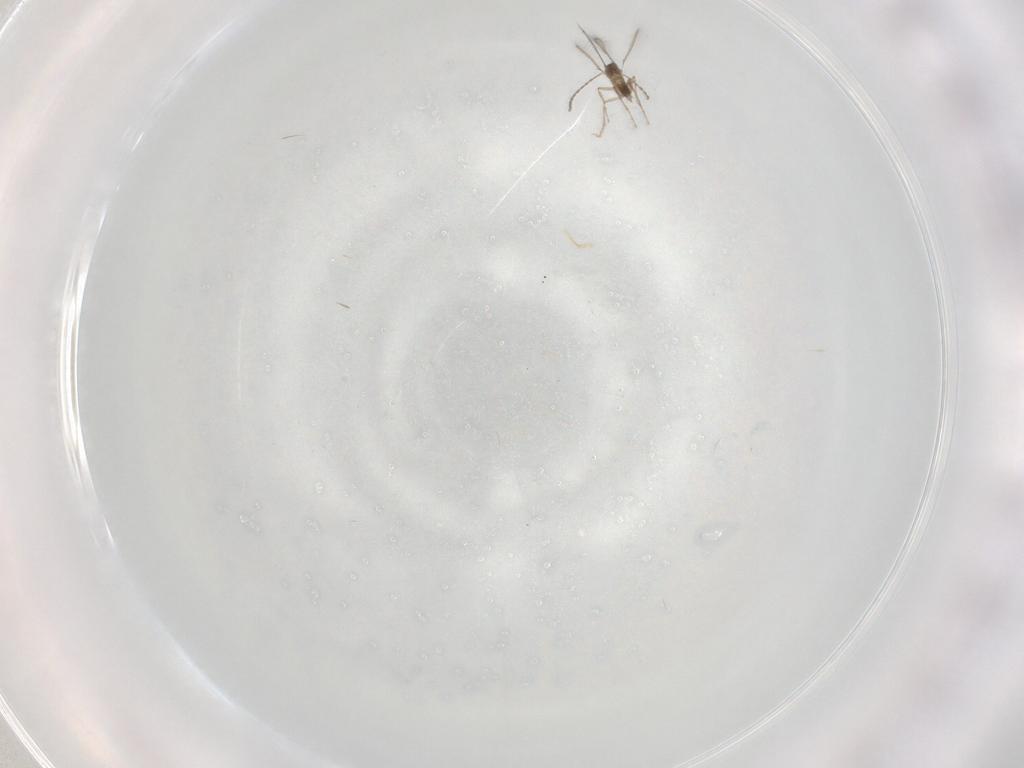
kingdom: Animalia
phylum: Arthropoda
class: Insecta
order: Hymenoptera
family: Mymaridae
